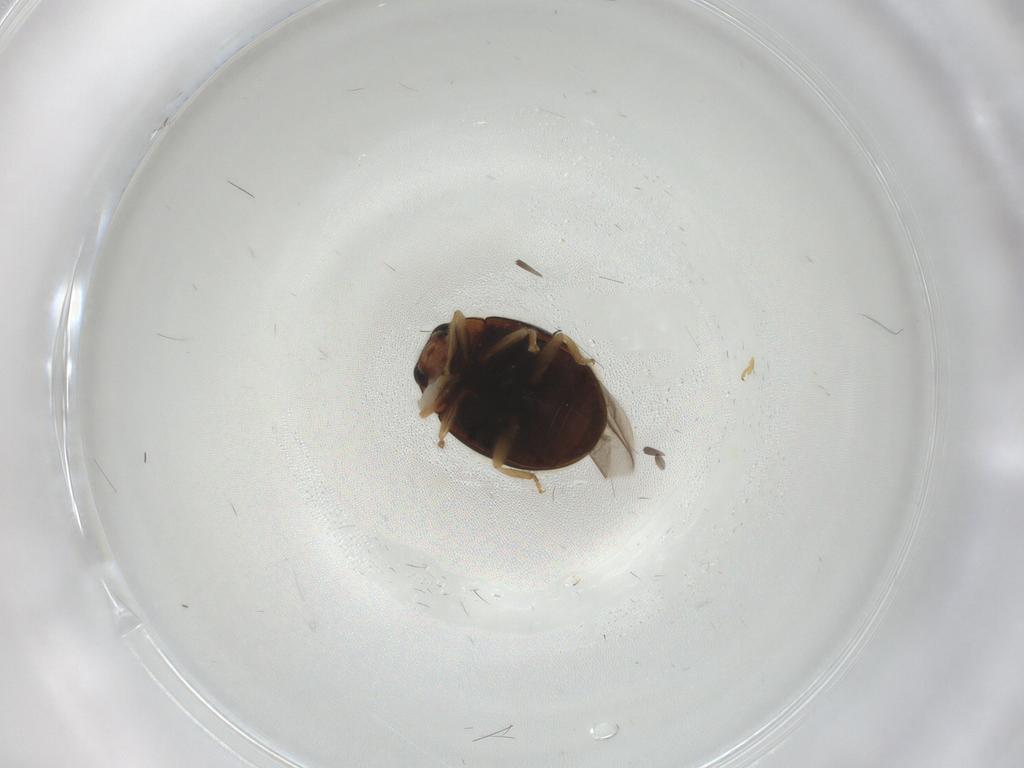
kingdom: Animalia
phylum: Arthropoda
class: Insecta
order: Coleoptera
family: Coccinellidae
